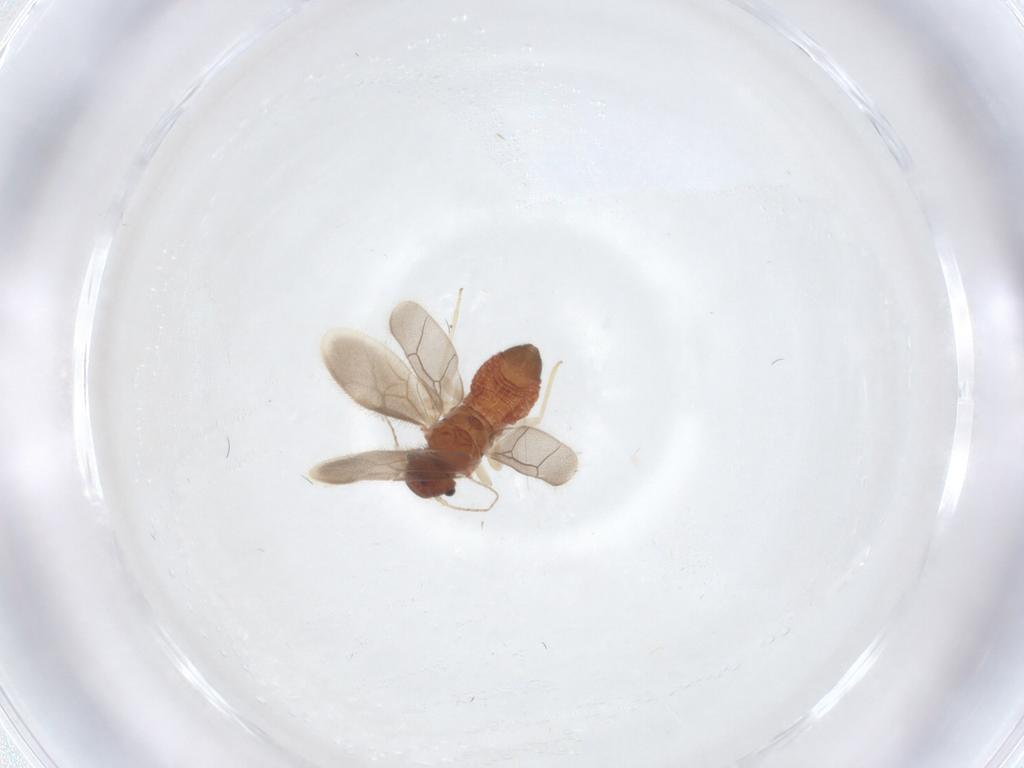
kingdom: Animalia
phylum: Arthropoda
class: Insecta
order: Psocodea
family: Archipsocidae
